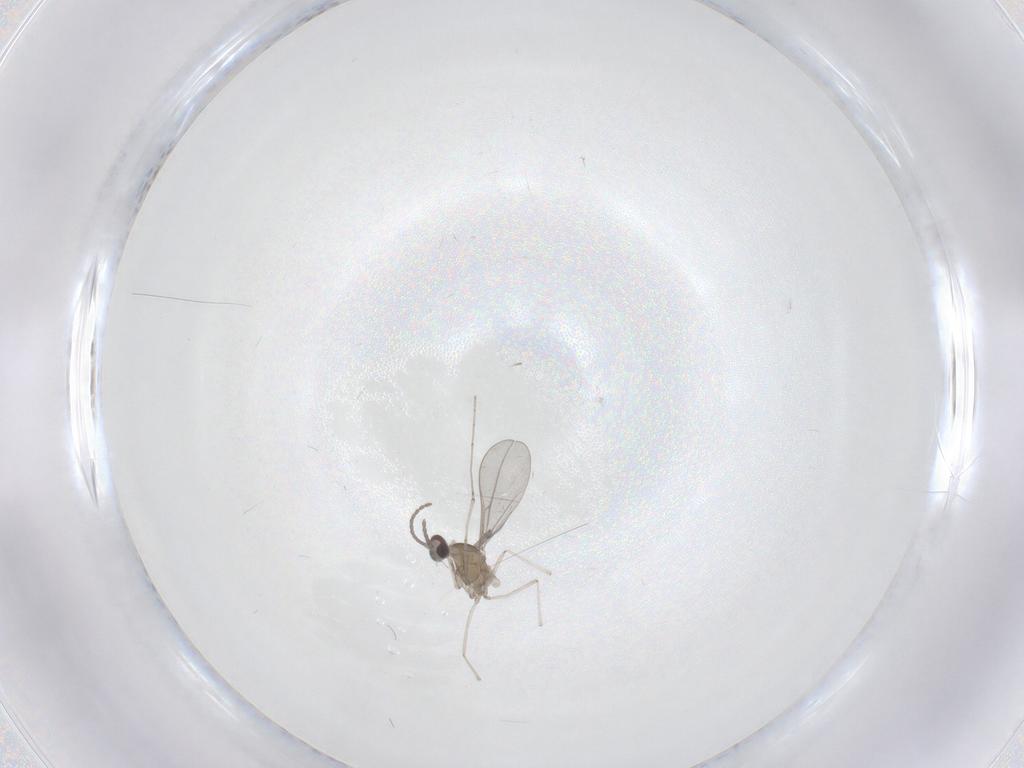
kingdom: Animalia
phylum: Arthropoda
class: Insecta
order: Diptera
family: Cecidomyiidae
